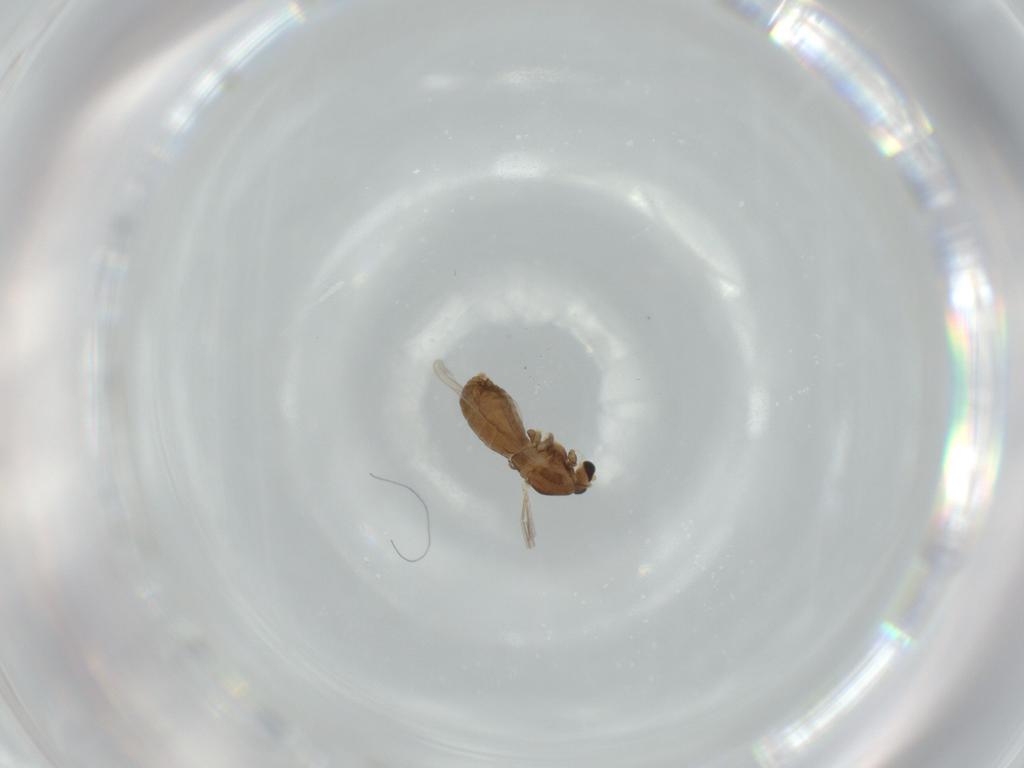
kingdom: Animalia
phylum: Arthropoda
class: Insecta
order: Diptera
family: Chironomidae
